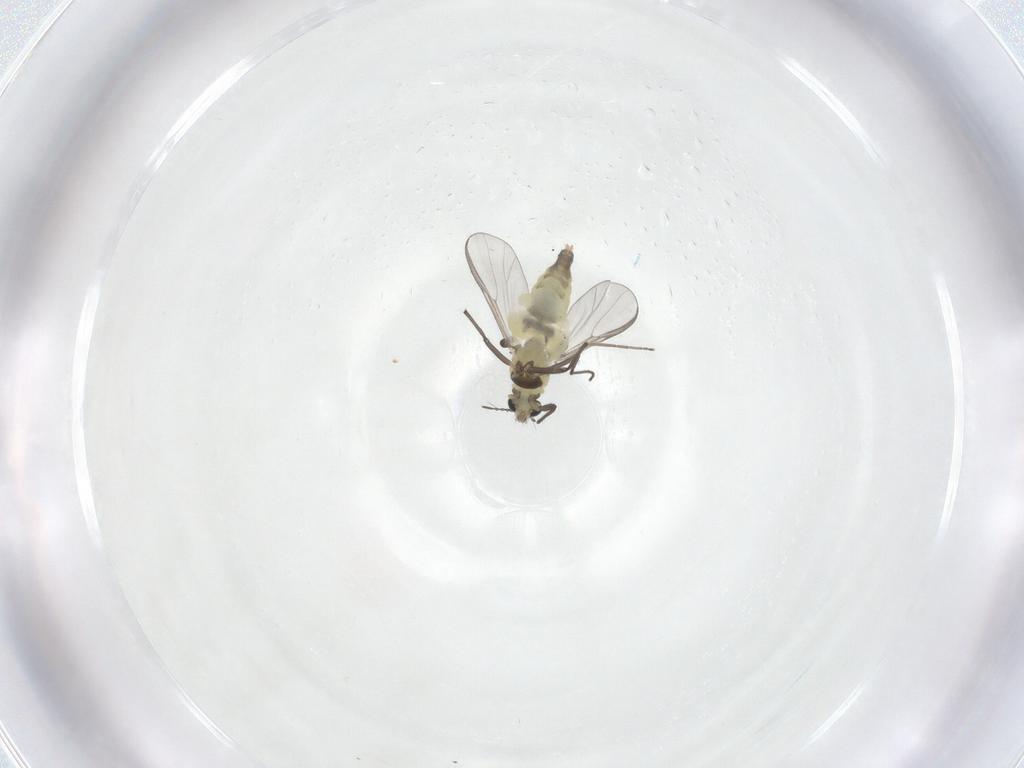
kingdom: Animalia
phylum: Arthropoda
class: Insecta
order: Diptera
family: Chironomidae
